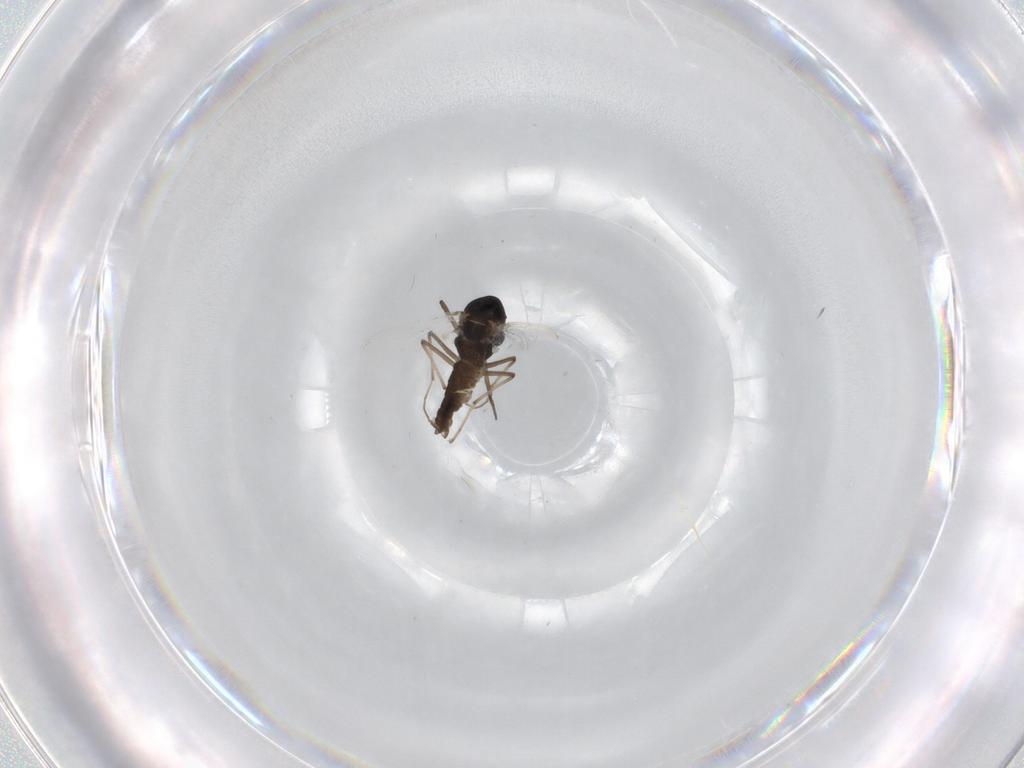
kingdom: Animalia
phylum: Arthropoda
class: Insecta
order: Diptera
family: Chironomidae
